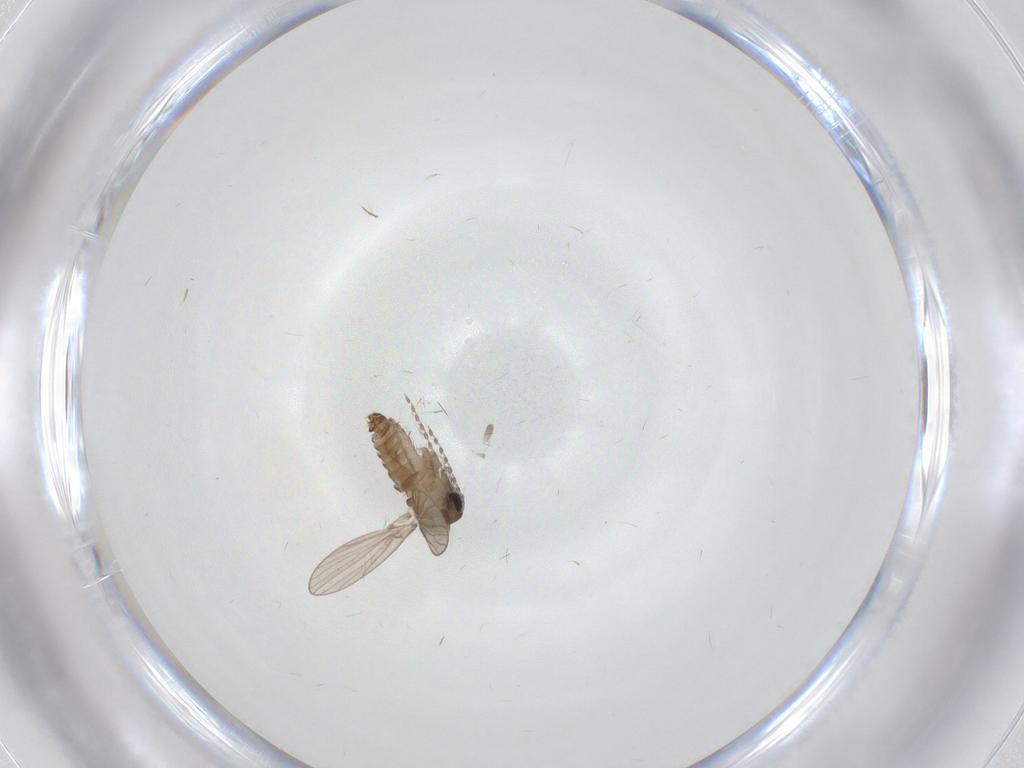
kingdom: Animalia
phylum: Arthropoda
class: Insecta
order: Diptera
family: Psychodidae
